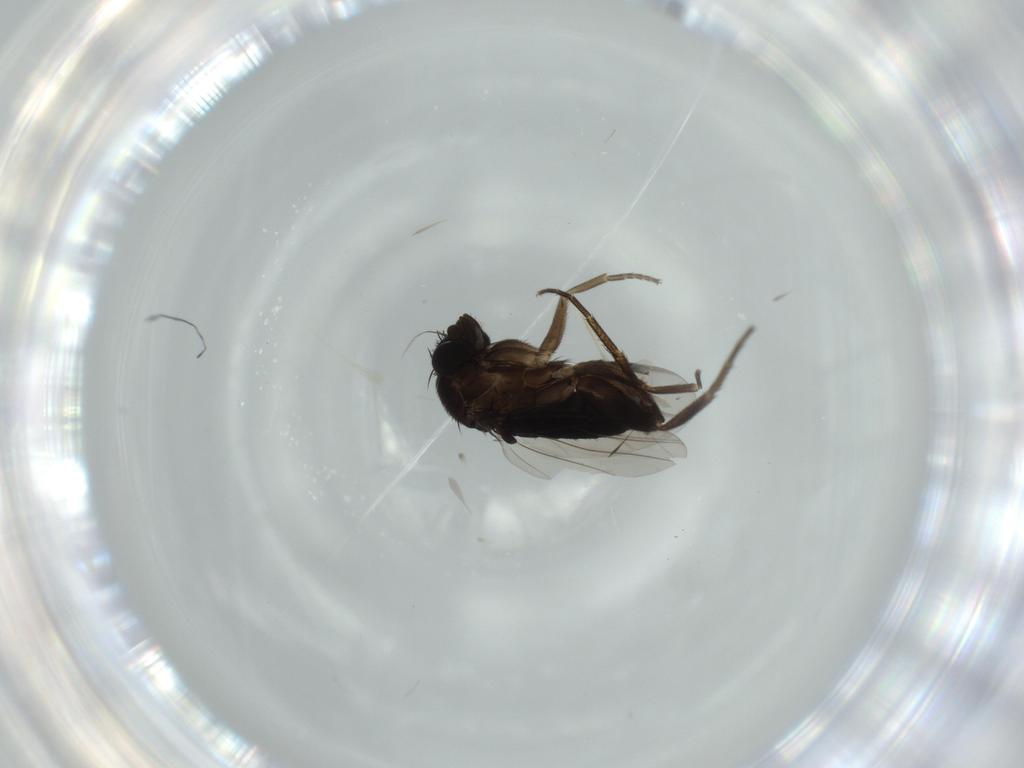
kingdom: Animalia
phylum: Arthropoda
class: Insecta
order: Diptera
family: Phoridae
